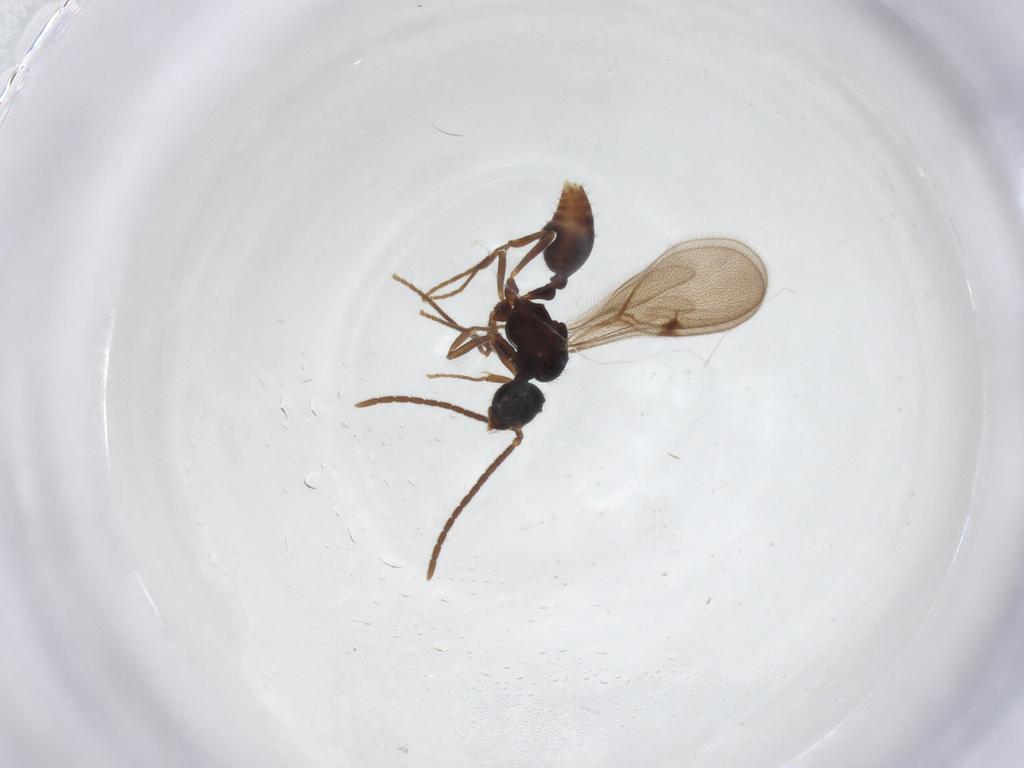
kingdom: Animalia
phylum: Arthropoda
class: Insecta
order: Hymenoptera
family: Formicidae
